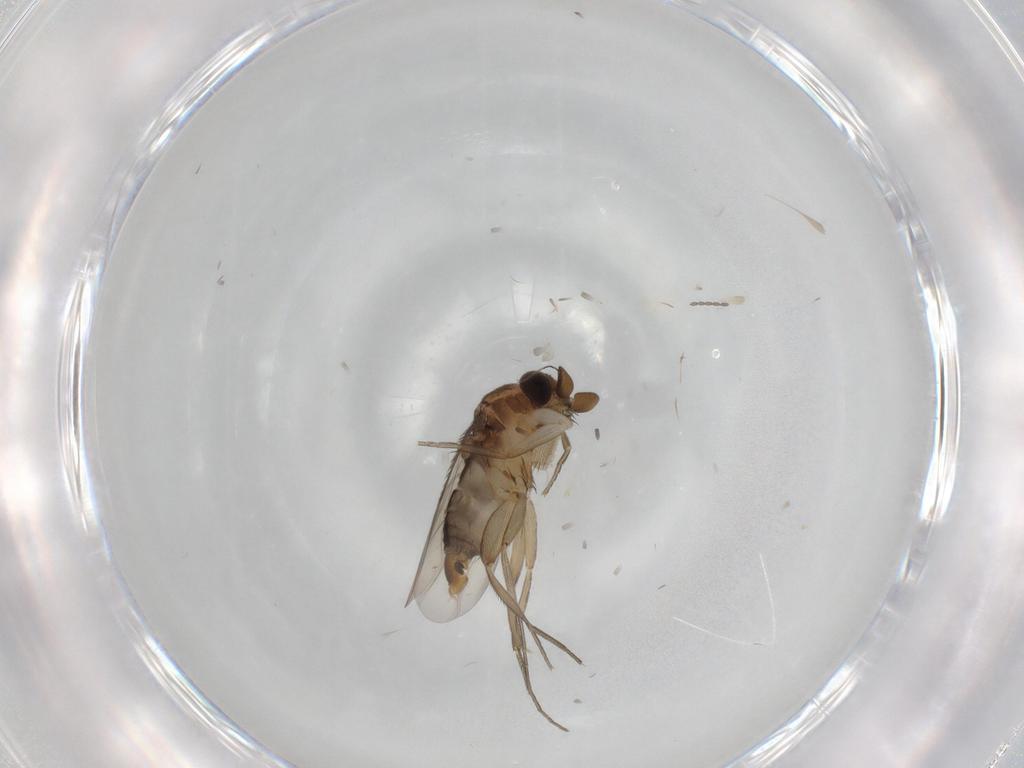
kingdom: Animalia
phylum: Arthropoda
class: Insecta
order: Diptera
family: Phoridae
